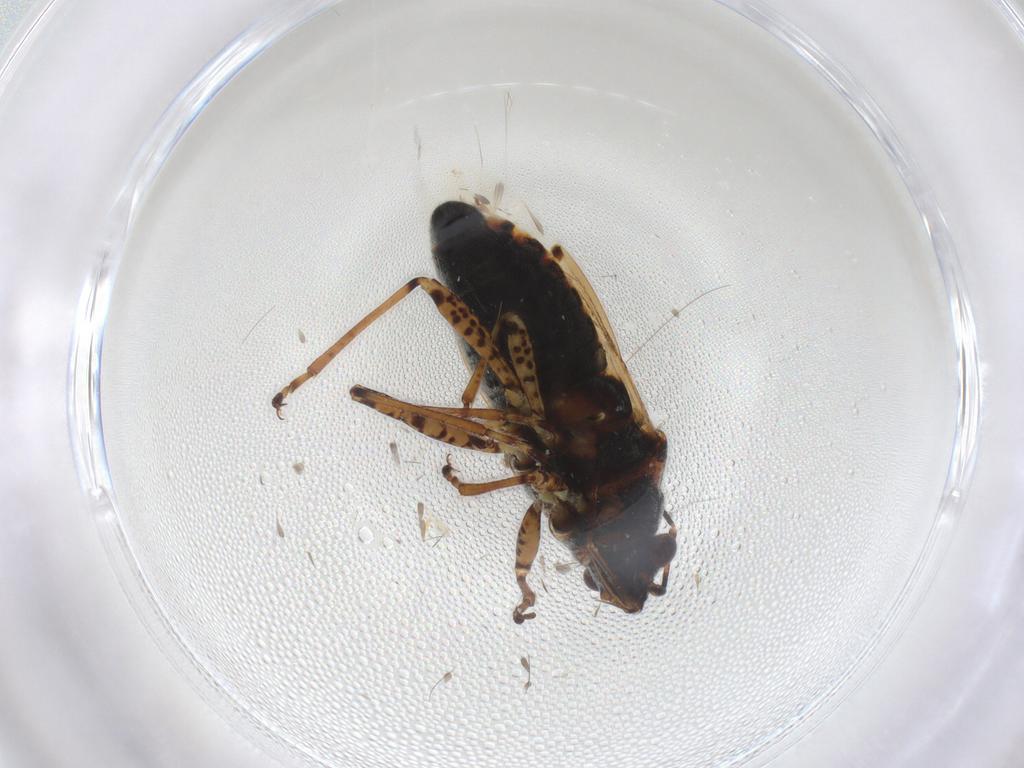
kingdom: Animalia
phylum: Arthropoda
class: Insecta
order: Hemiptera
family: Lygaeidae
